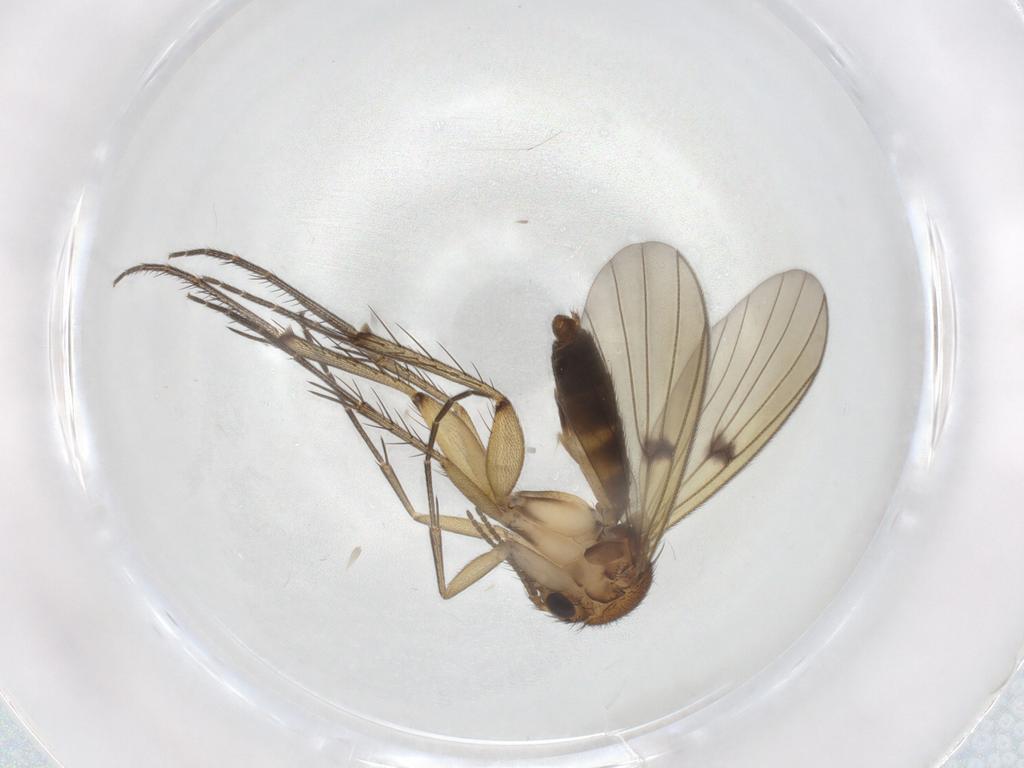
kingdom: Animalia
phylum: Arthropoda
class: Insecta
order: Diptera
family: Mycetophilidae
